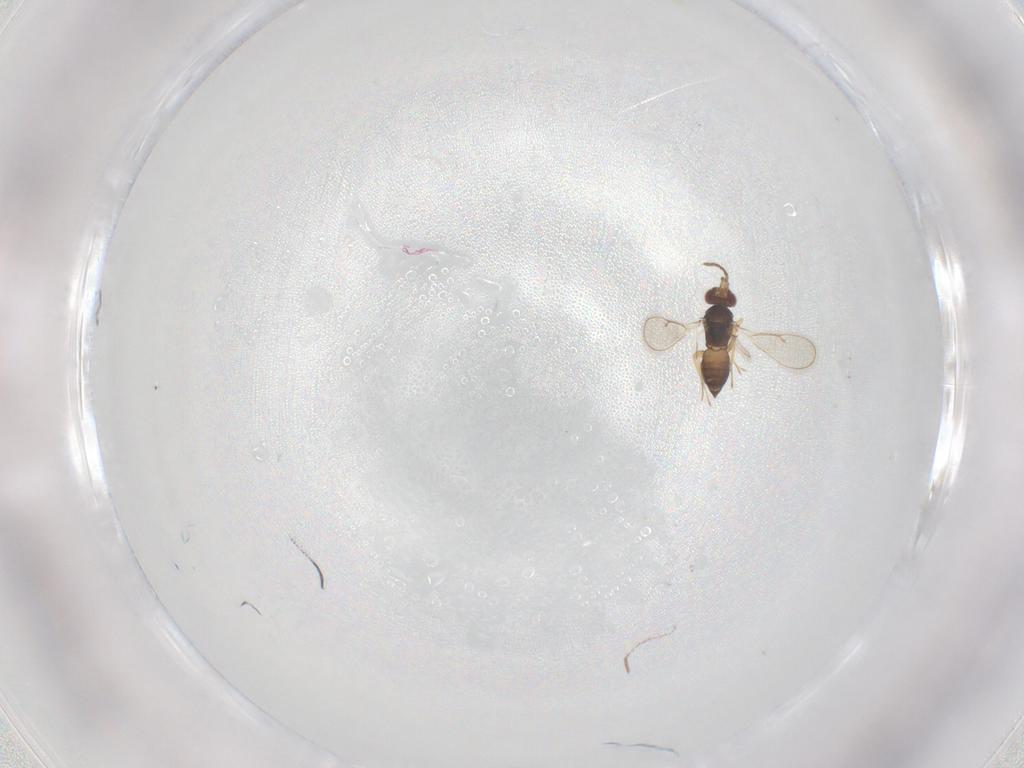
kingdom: Animalia
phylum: Arthropoda
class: Insecta
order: Hymenoptera
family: Eulophidae
